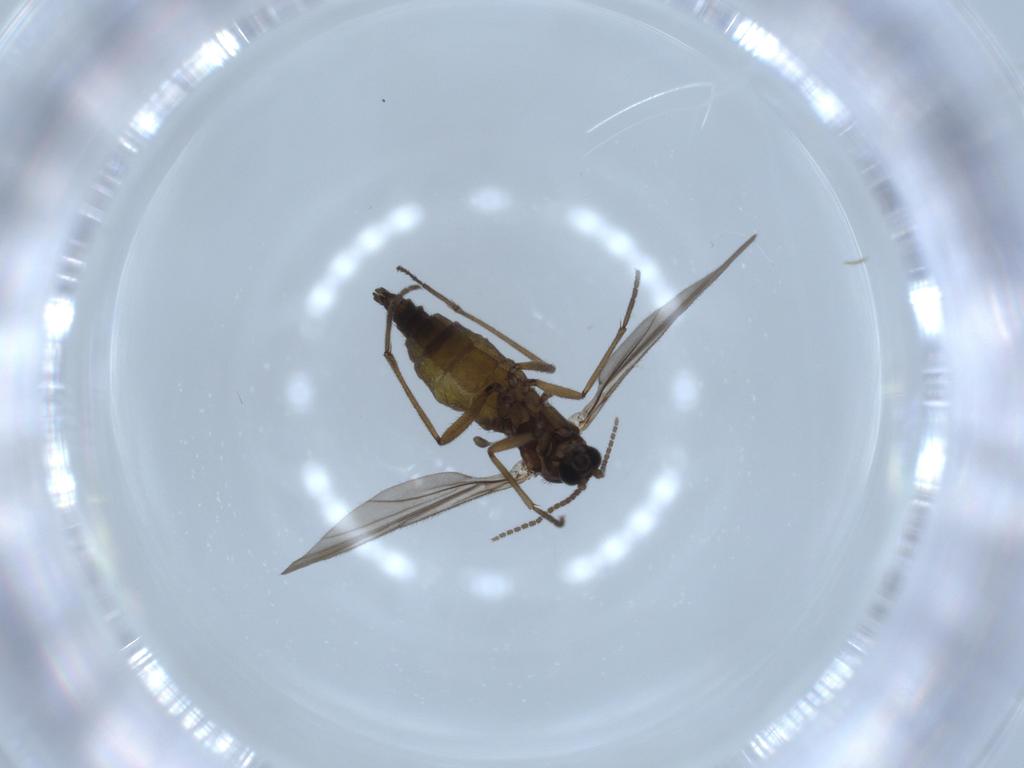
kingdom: Animalia
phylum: Arthropoda
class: Insecta
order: Diptera
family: Sciaridae
